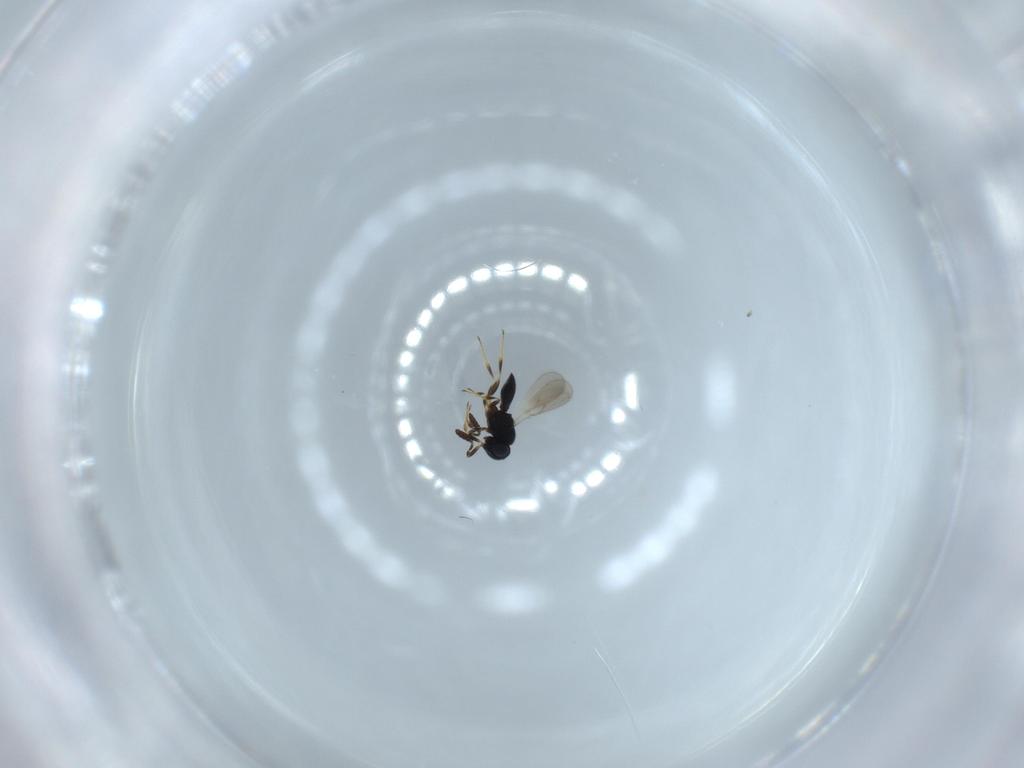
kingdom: Animalia
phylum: Arthropoda
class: Insecta
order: Hymenoptera
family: Scelionidae
